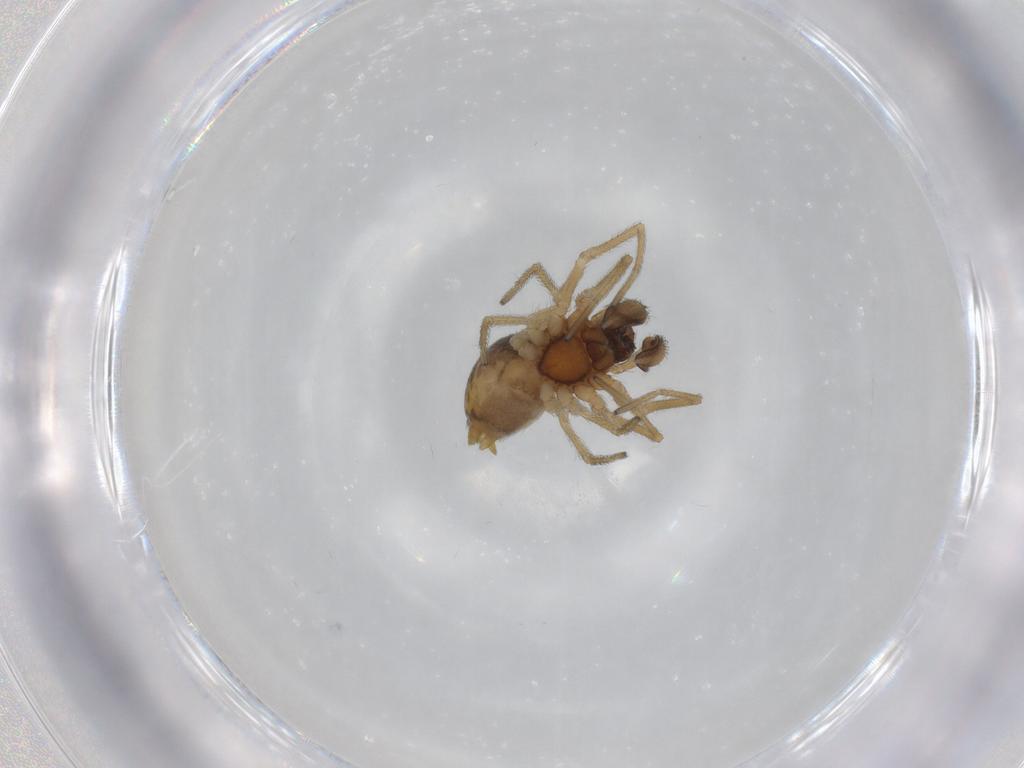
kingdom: Animalia
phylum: Arthropoda
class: Arachnida
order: Araneae
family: Dictynidae
